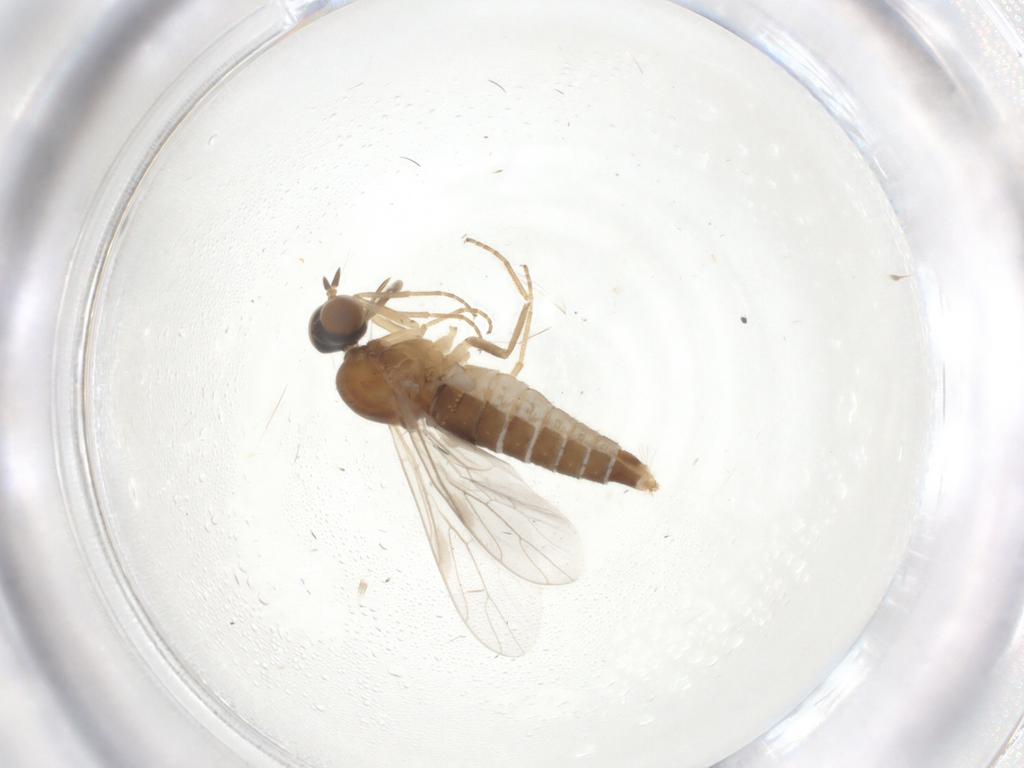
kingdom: Animalia
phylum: Arthropoda
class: Insecta
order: Diptera
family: Scenopinidae
